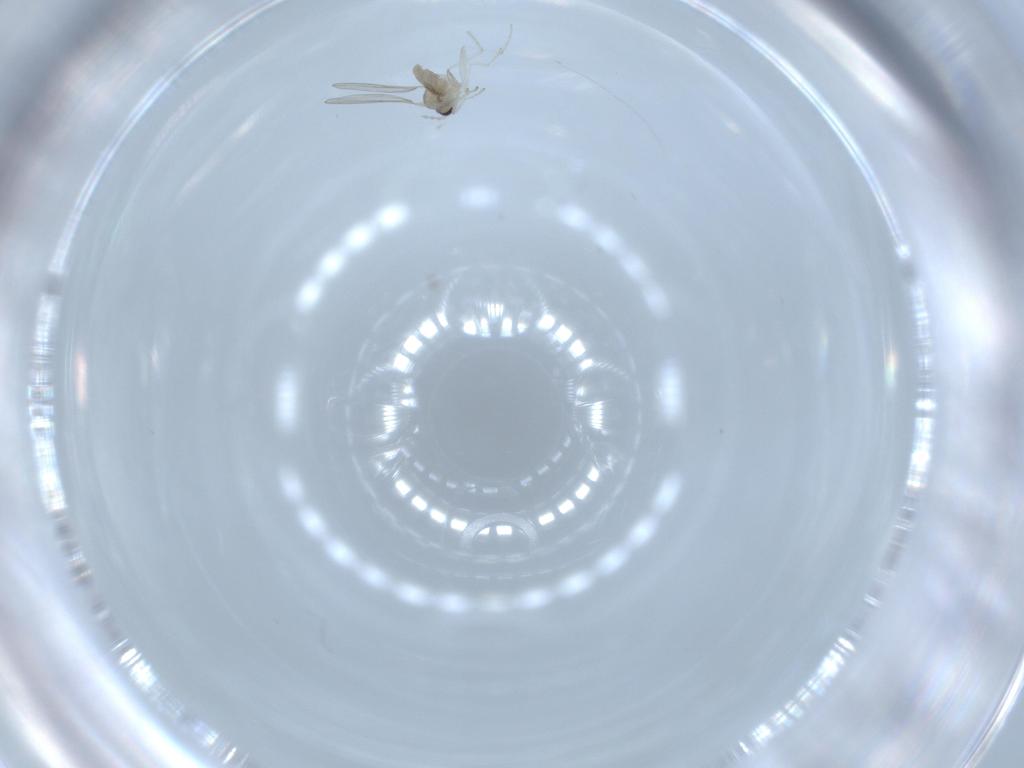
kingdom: Animalia
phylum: Arthropoda
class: Insecta
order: Diptera
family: Cecidomyiidae
